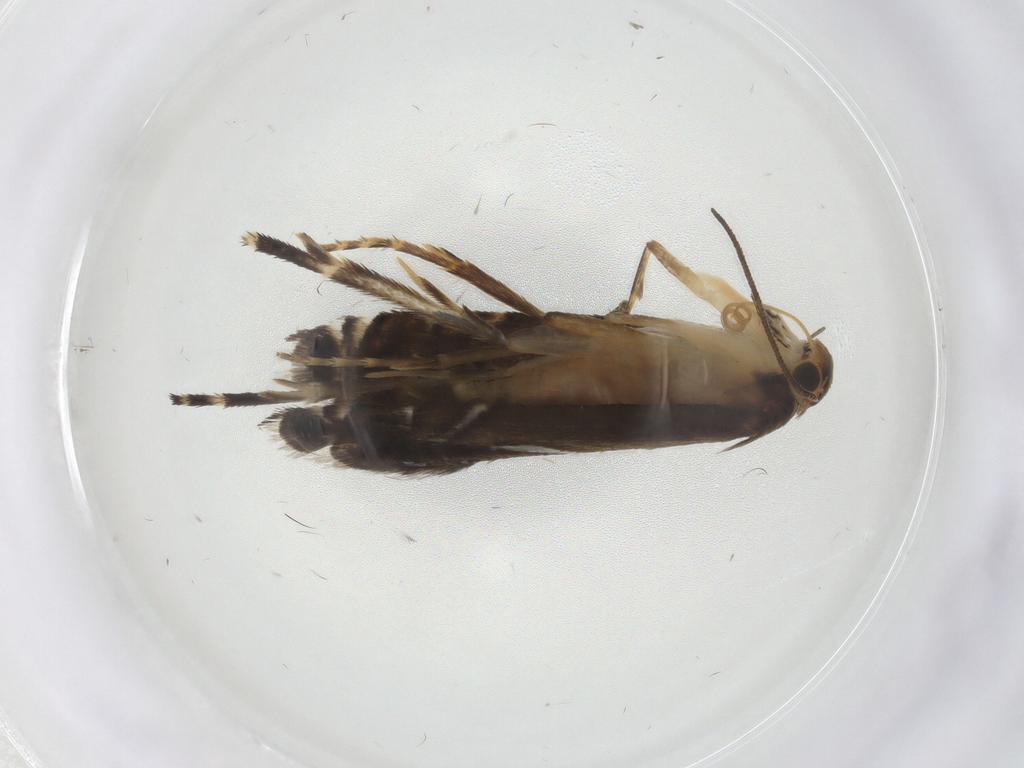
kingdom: Animalia
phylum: Arthropoda
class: Insecta
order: Lepidoptera
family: Glyphipterigidae
